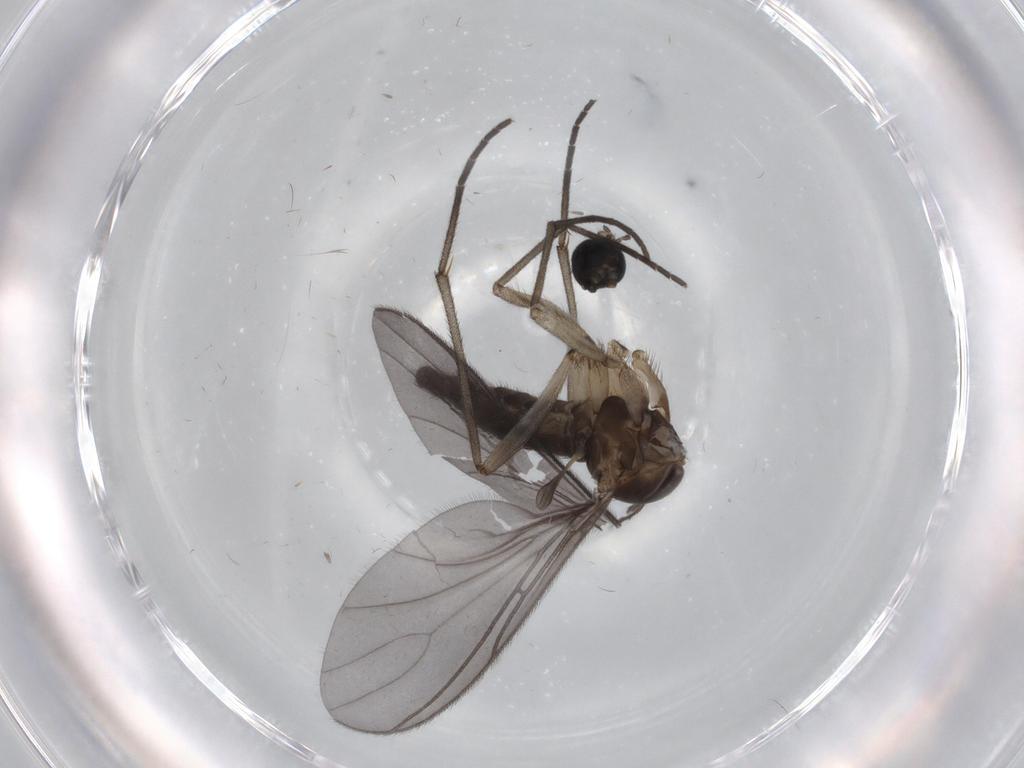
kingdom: Animalia
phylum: Arthropoda
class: Insecta
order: Diptera
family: Sciaridae
